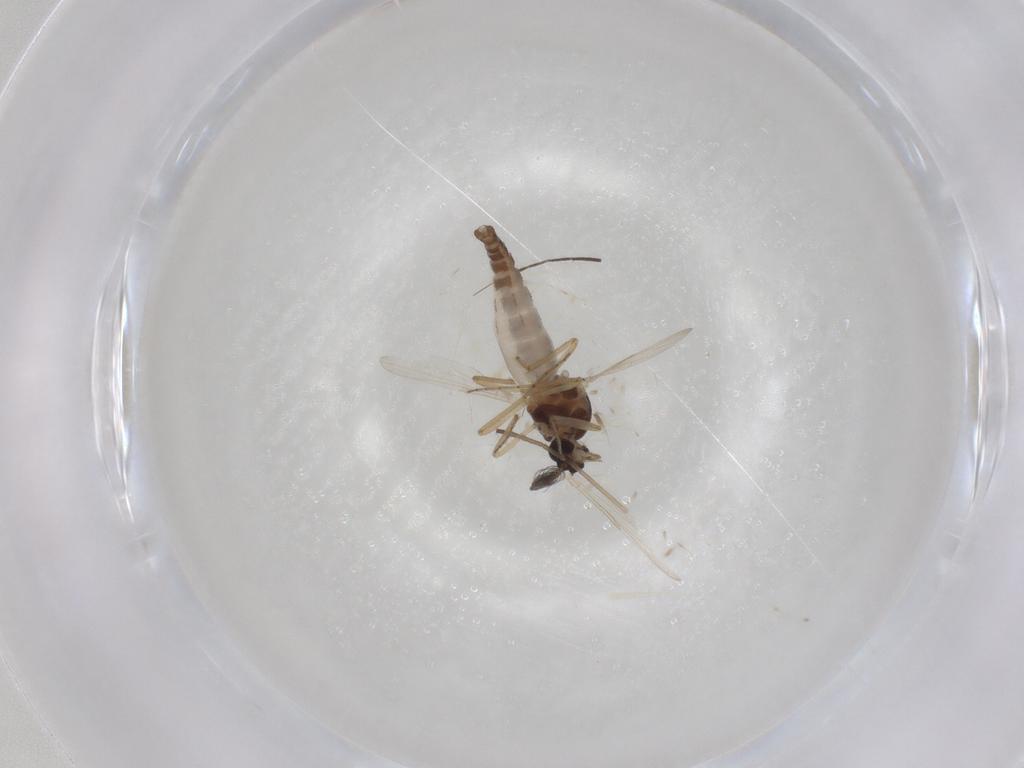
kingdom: Animalia
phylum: Arthropoda
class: Insecta
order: Diptera
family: Ceratopogonidae
